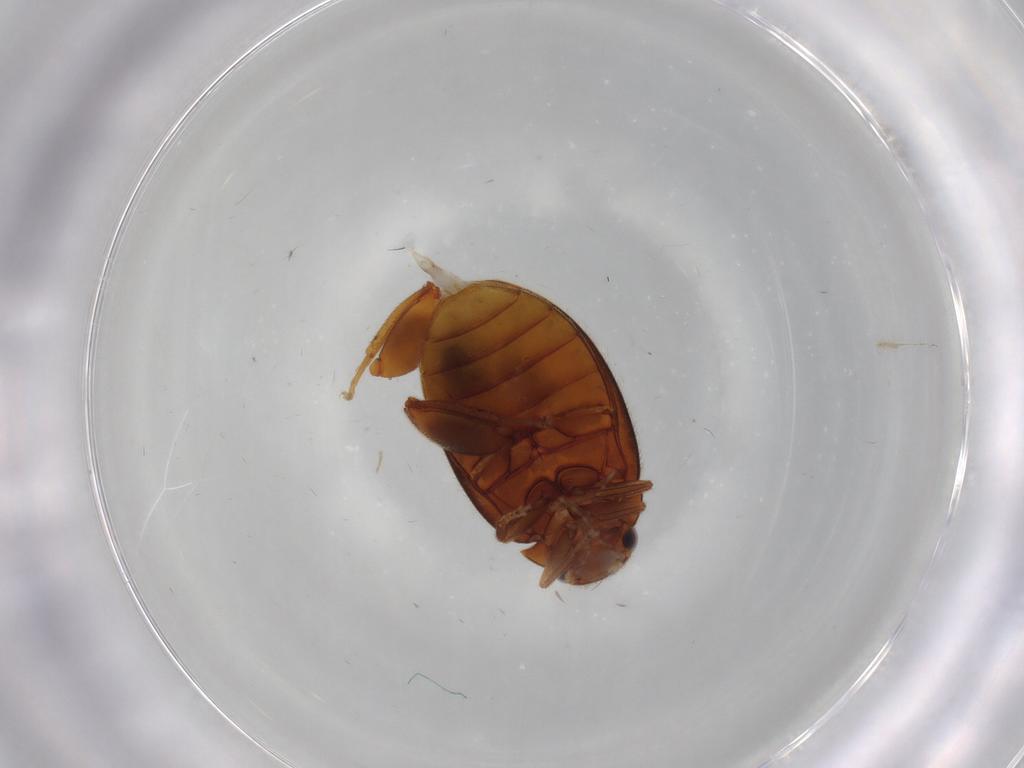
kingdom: Animalia
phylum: Arthropoda
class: Insecta
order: Coleoptera
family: Scirtidae
